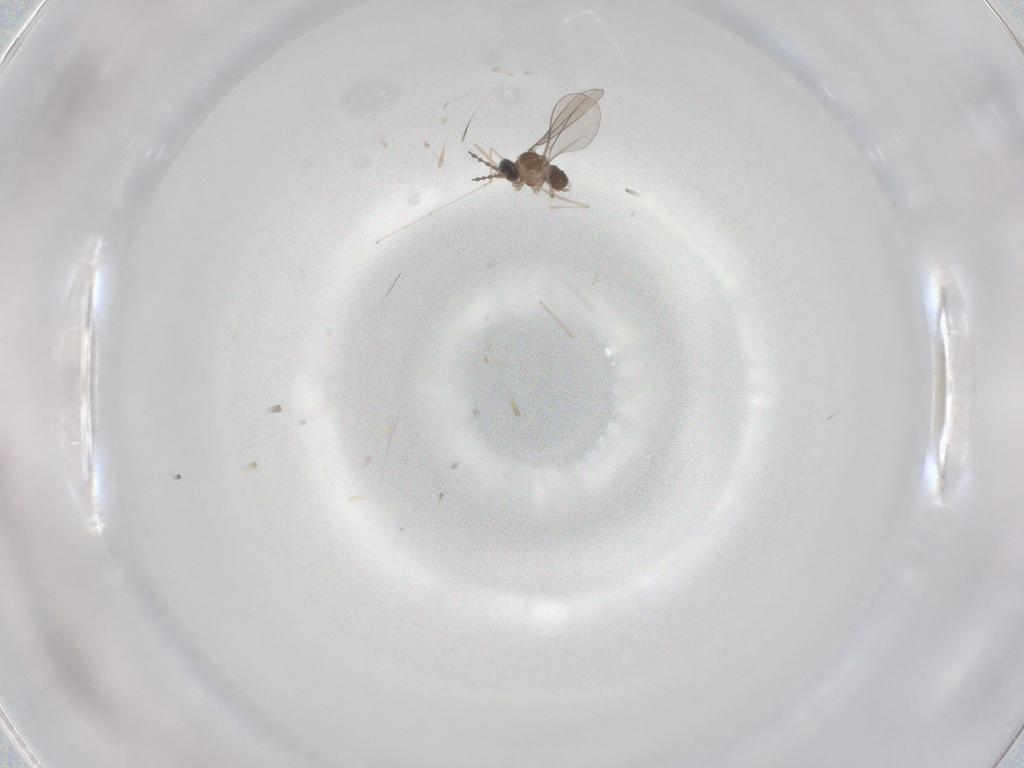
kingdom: Animalia
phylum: Arthropoda
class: Insecta
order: Diptera
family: Cecidomyiidae
